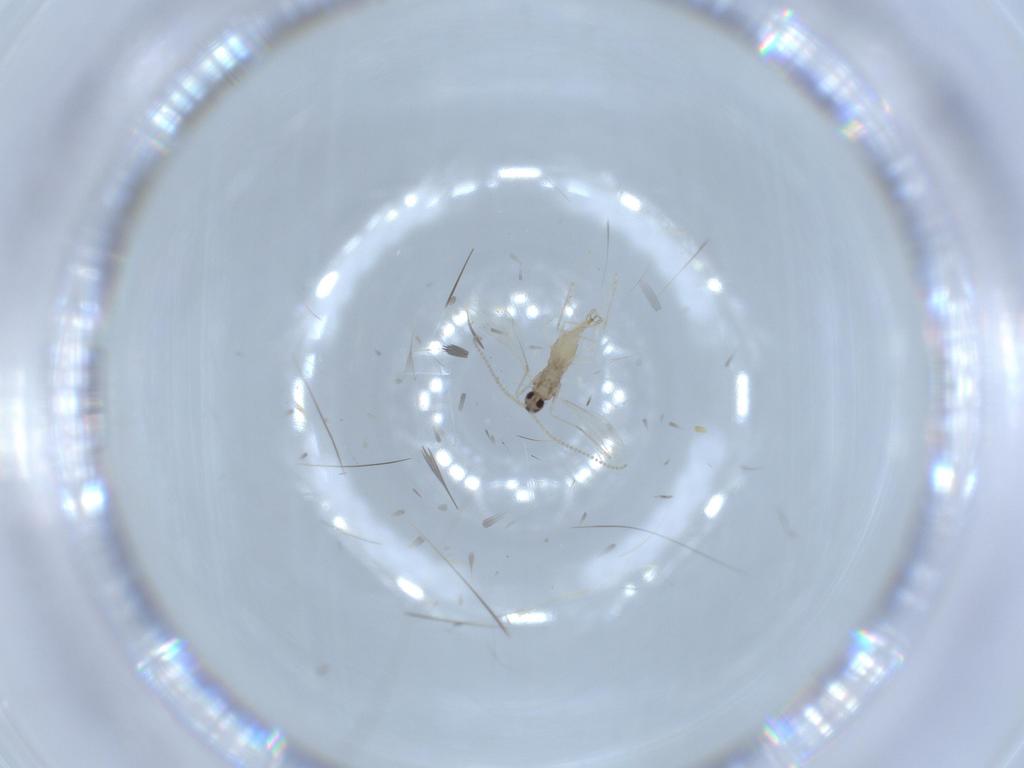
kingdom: Animalia
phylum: Arthropoda
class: Insecta
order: Diptera
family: Cecidomyiidae
